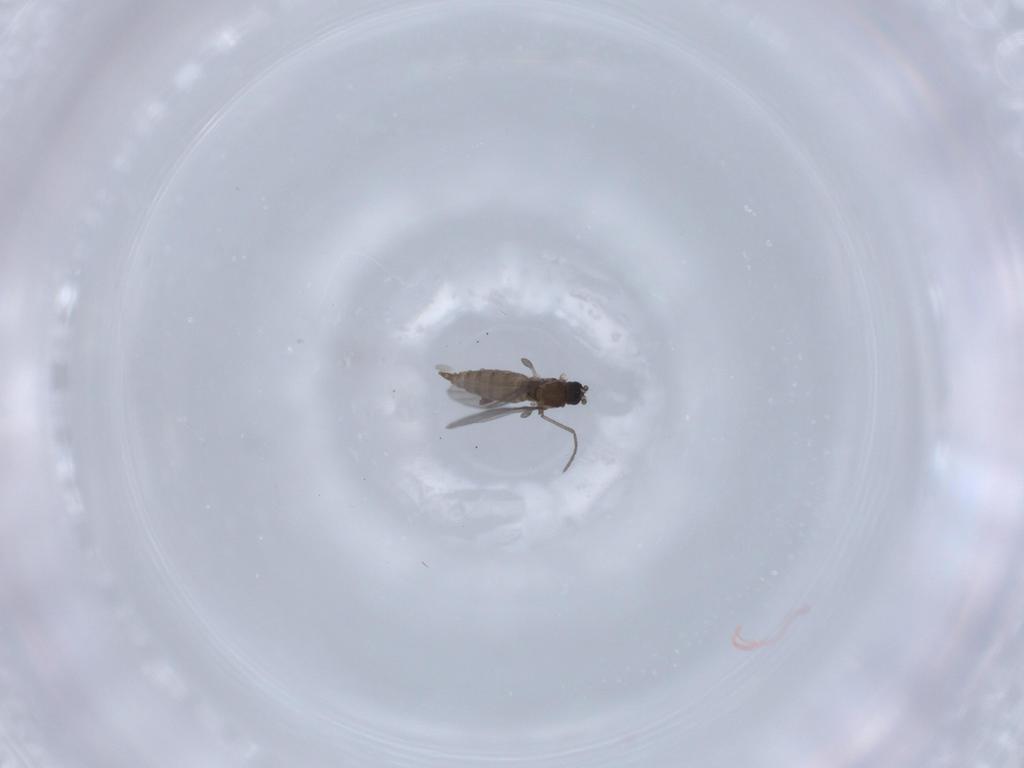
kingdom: Animalia
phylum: Arthropoda
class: Insecta
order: Diptera
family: Sciaridae
